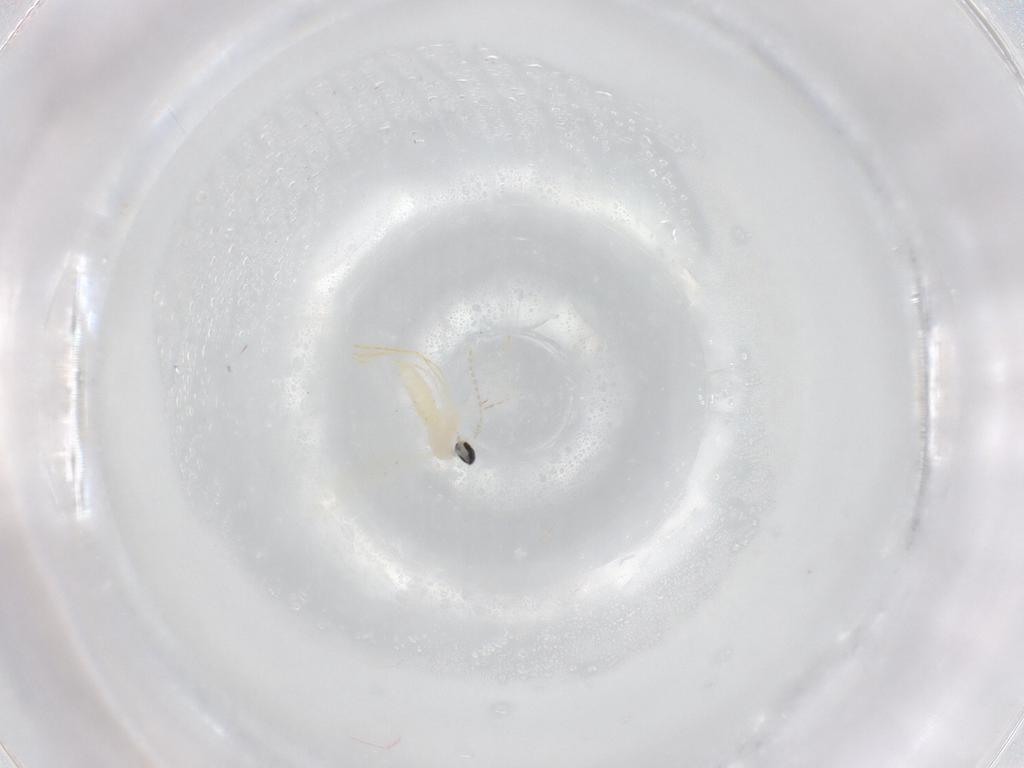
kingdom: Animalia
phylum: Arthropoda
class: Insecta
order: Diptera
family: Cecidomyiidae
